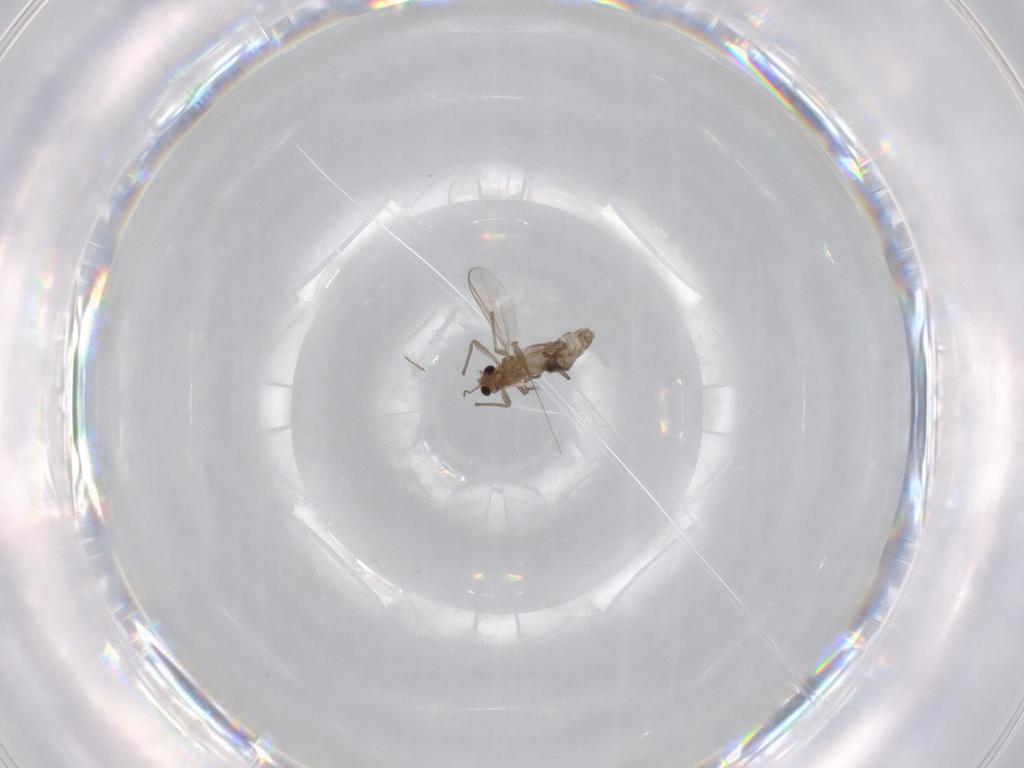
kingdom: Animalia
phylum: Arthropoda
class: Insecta
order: Diptera
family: Chironomidae
